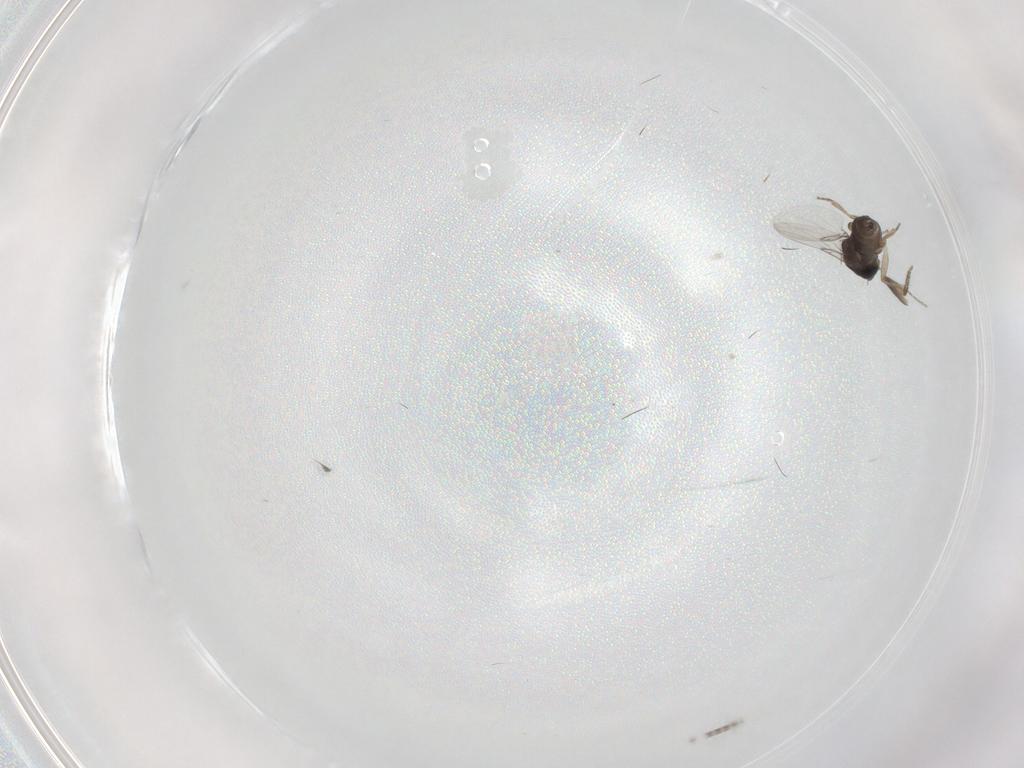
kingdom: Animalia
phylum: Arthropoda
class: Insecta
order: Diptera
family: Phoridae
